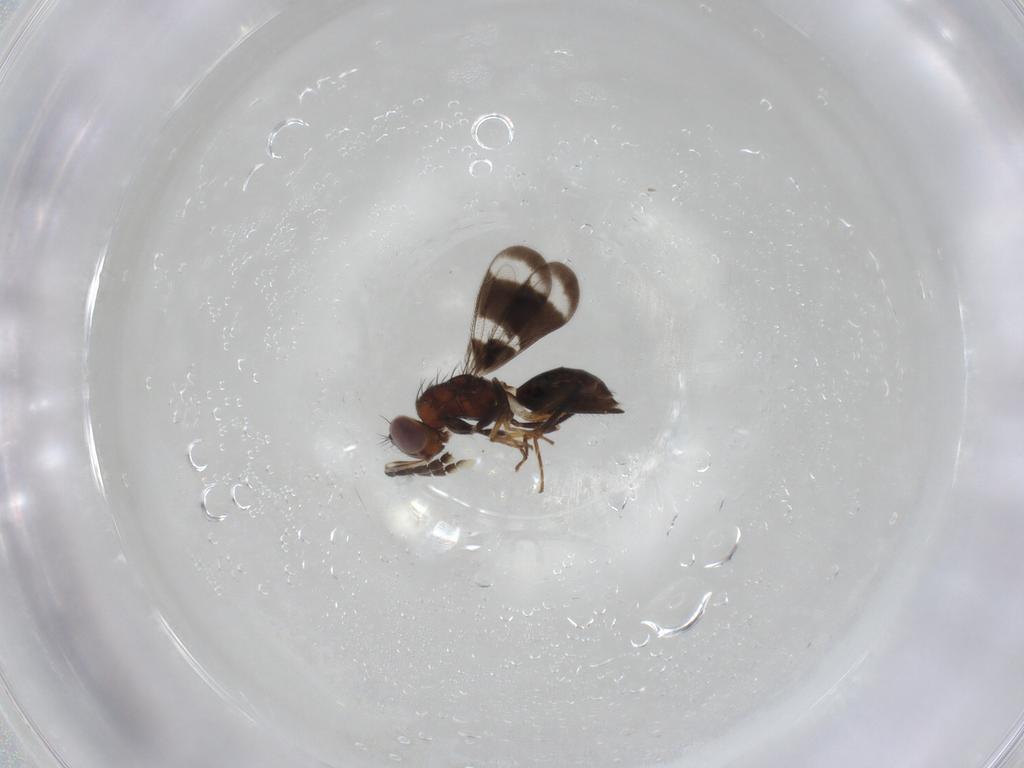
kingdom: Animalia
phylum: Arthropoda
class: Insecta
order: Hymenoptera
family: Eulophidae
